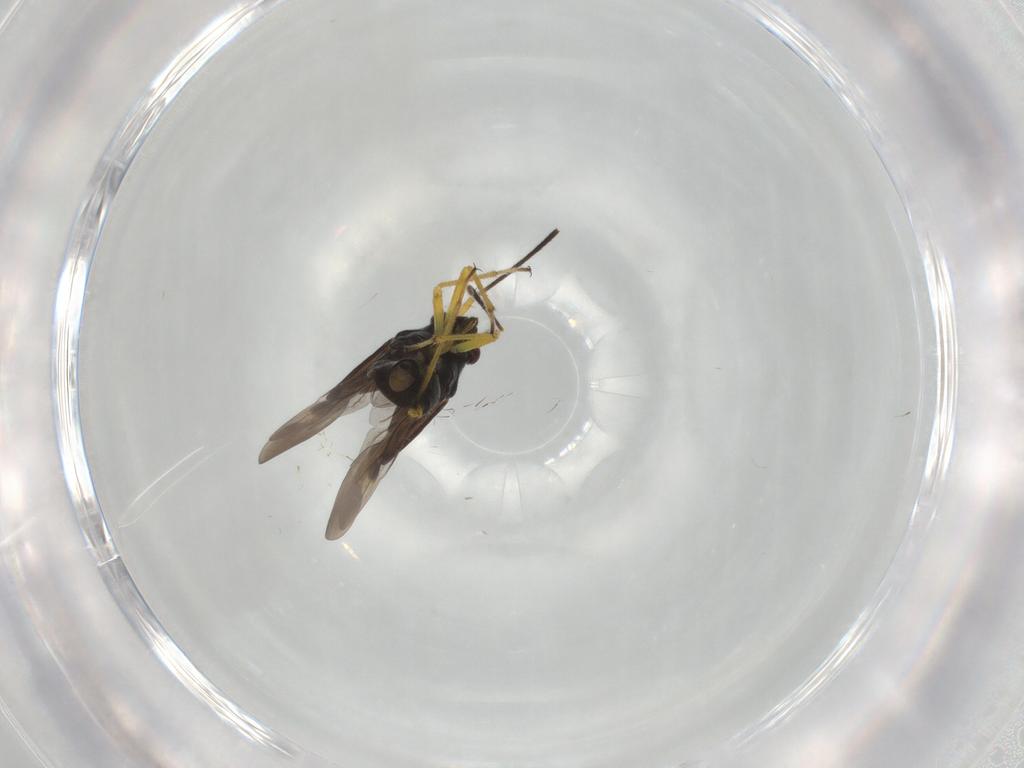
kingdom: Animalia
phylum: Arthropoda
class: Insecta
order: Hemiptera
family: Miridae
